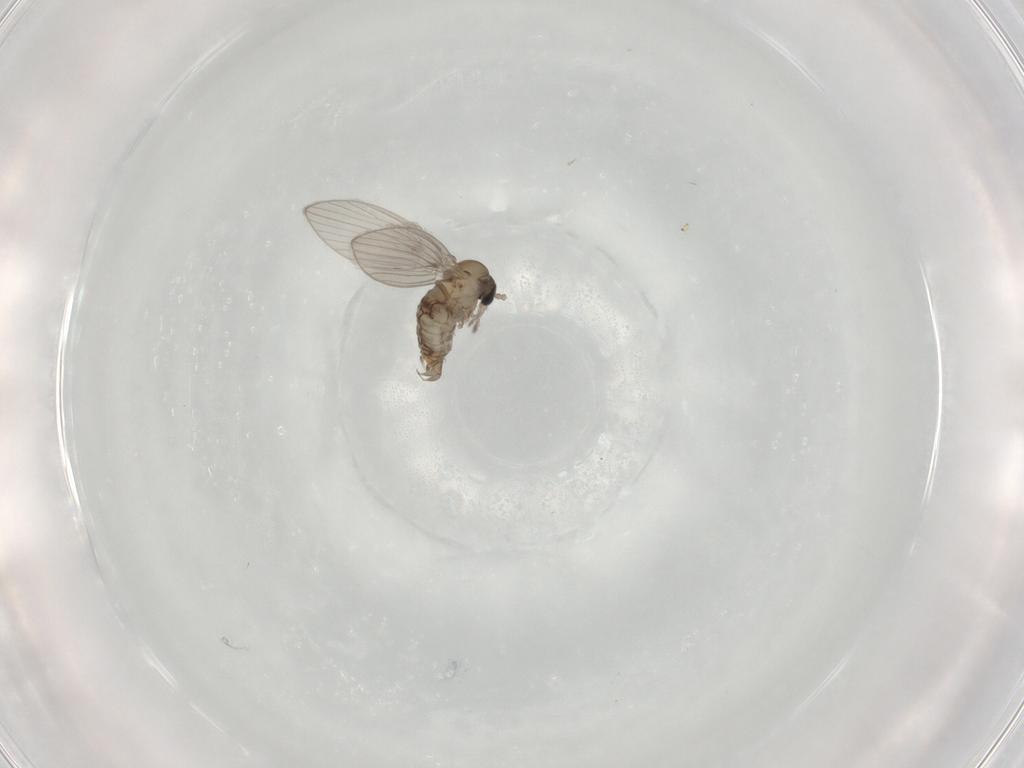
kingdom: Animalia
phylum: Arthropoda
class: Insecta
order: Diptera
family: Psychodidae
